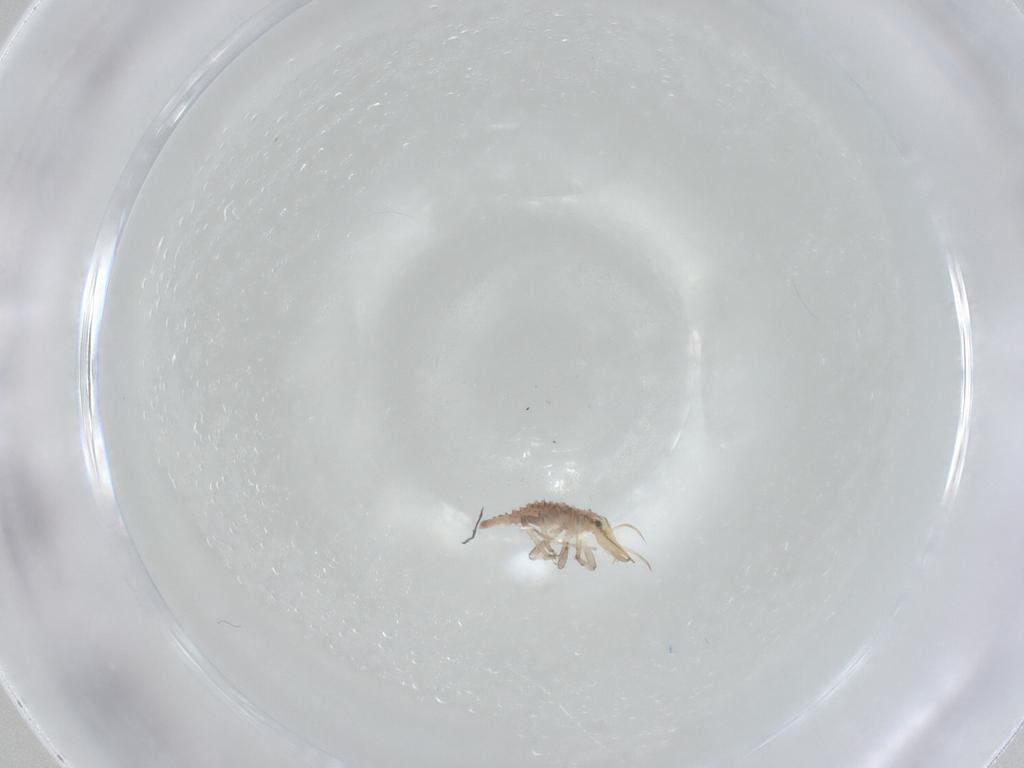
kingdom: Animalia
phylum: Arthropoda
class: Insecta
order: Neuroptera
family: Chrysopidae
